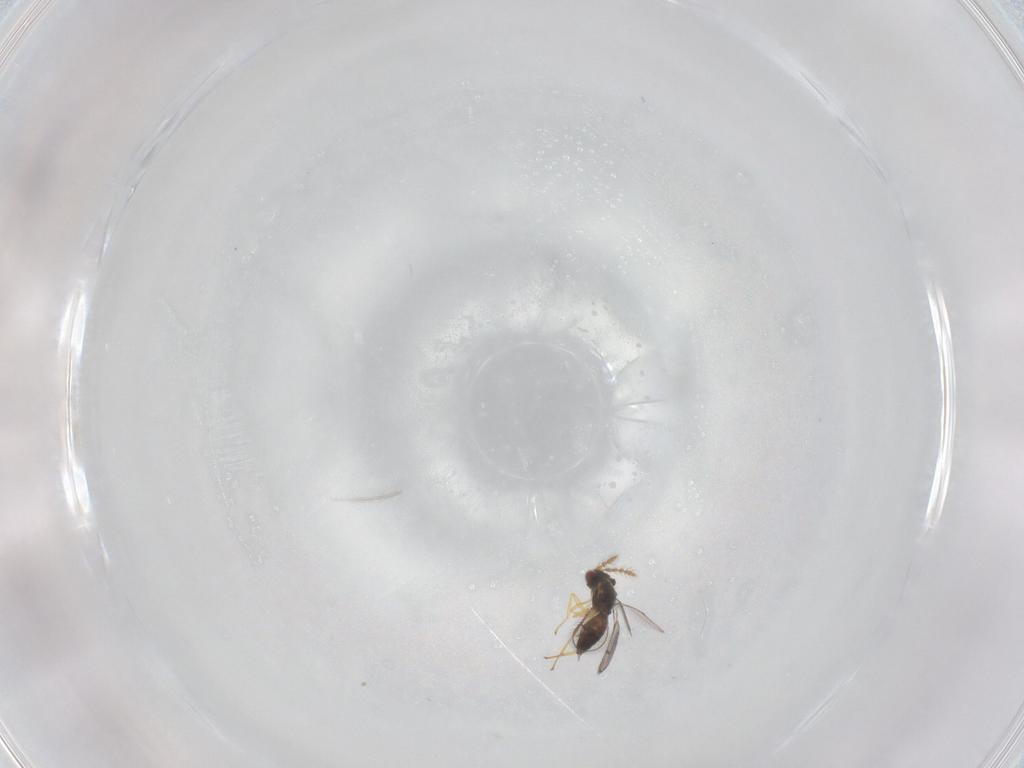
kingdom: Animalia
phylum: Arthropoda
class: Insecta
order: Hymenoptera
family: Eulophidae
